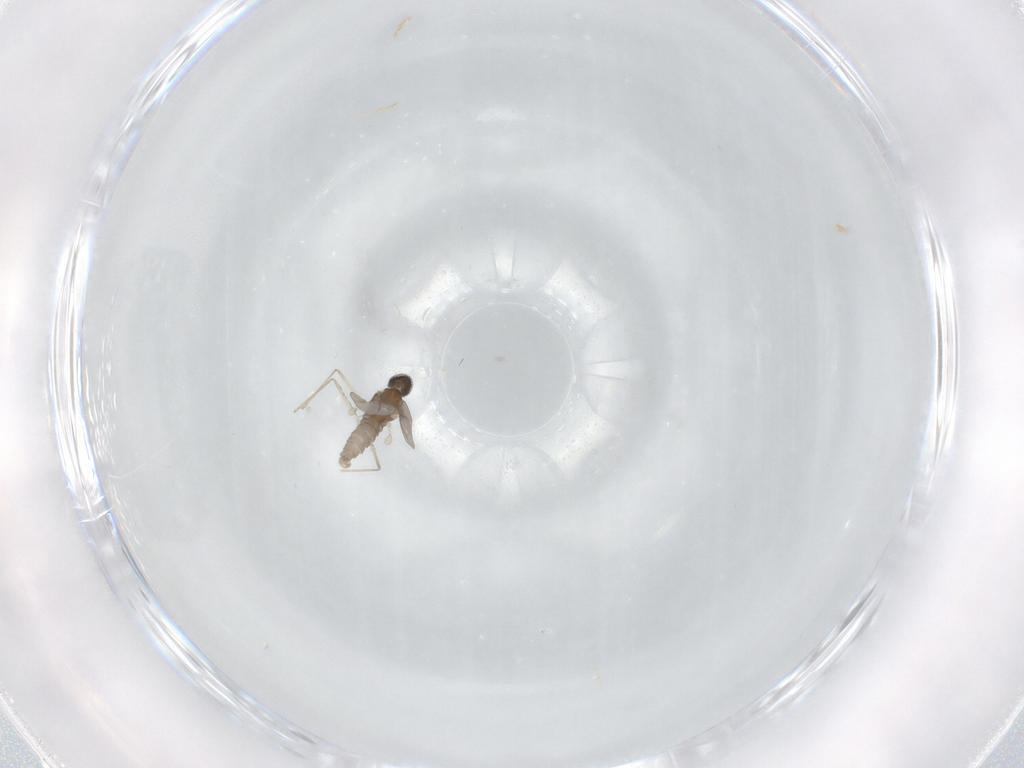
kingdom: Animalia
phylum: Arthropoda
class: Insecta
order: Diptera
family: Cecidomyiidae
